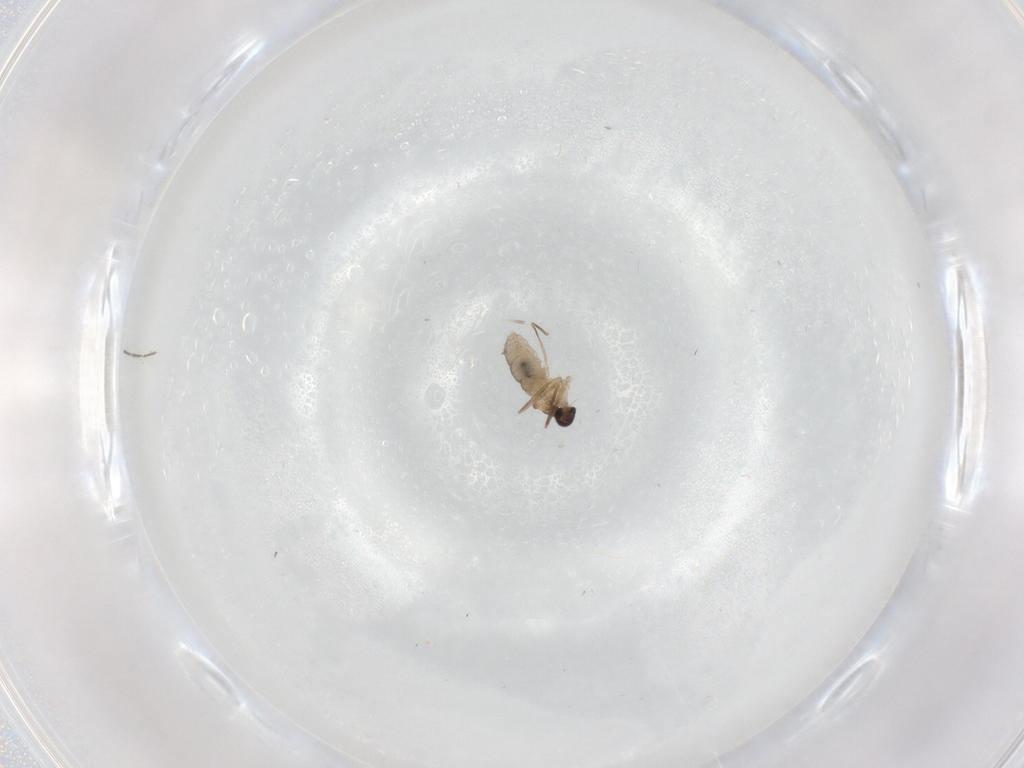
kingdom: Animalia
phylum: Arthropoda
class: Insecta
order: Diptera
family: Cecidomyiidae
